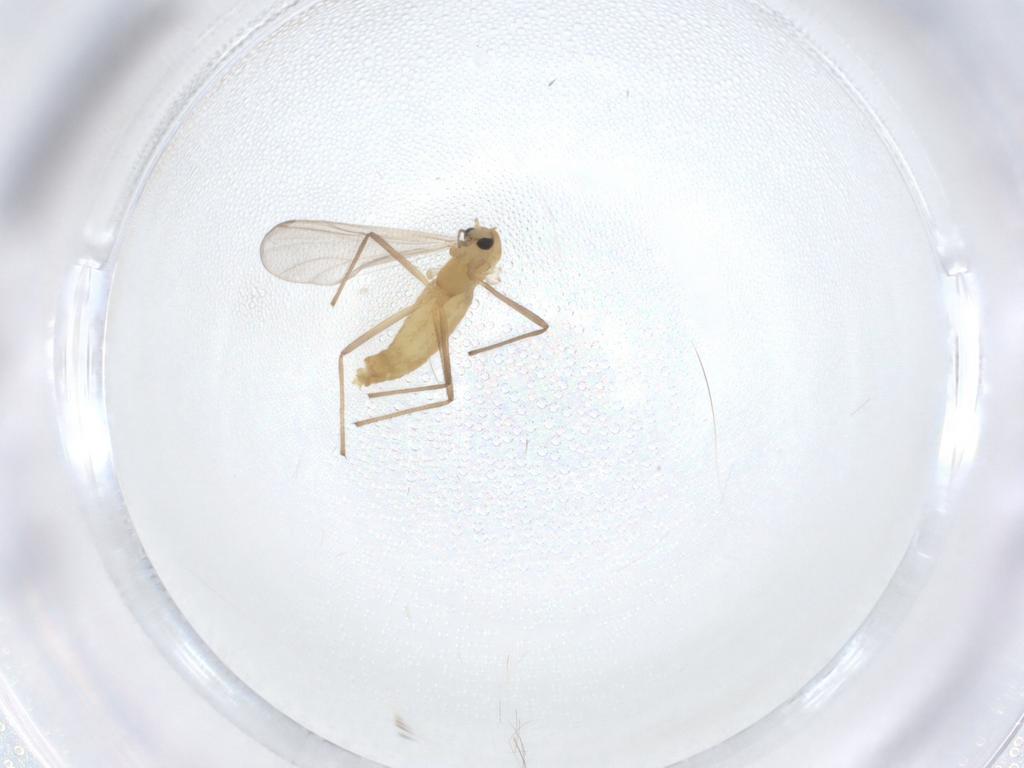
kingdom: Animalia
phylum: Arthropoda
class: Insecta
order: Diptera
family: Chironomidae
